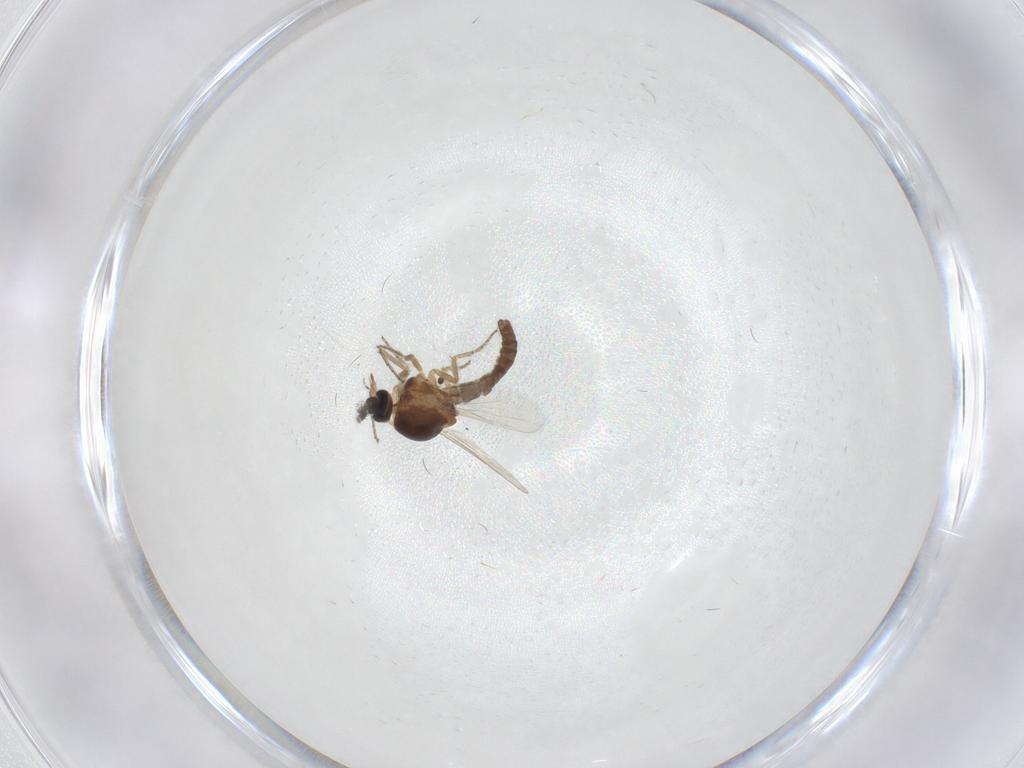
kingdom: Animalia
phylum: Arthropoda
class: Insecta
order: Diptera
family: Ceratopogonidae
